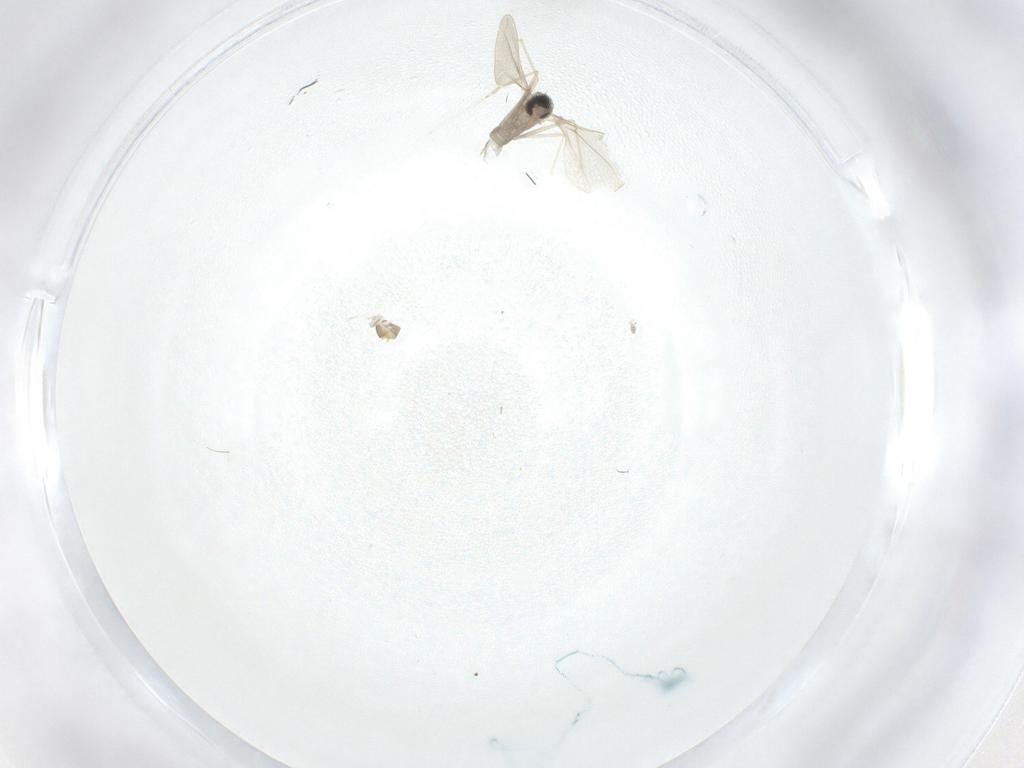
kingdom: Animalia
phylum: Arthropoda
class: Insecta
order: Diptera
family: Cecidomyiidae
